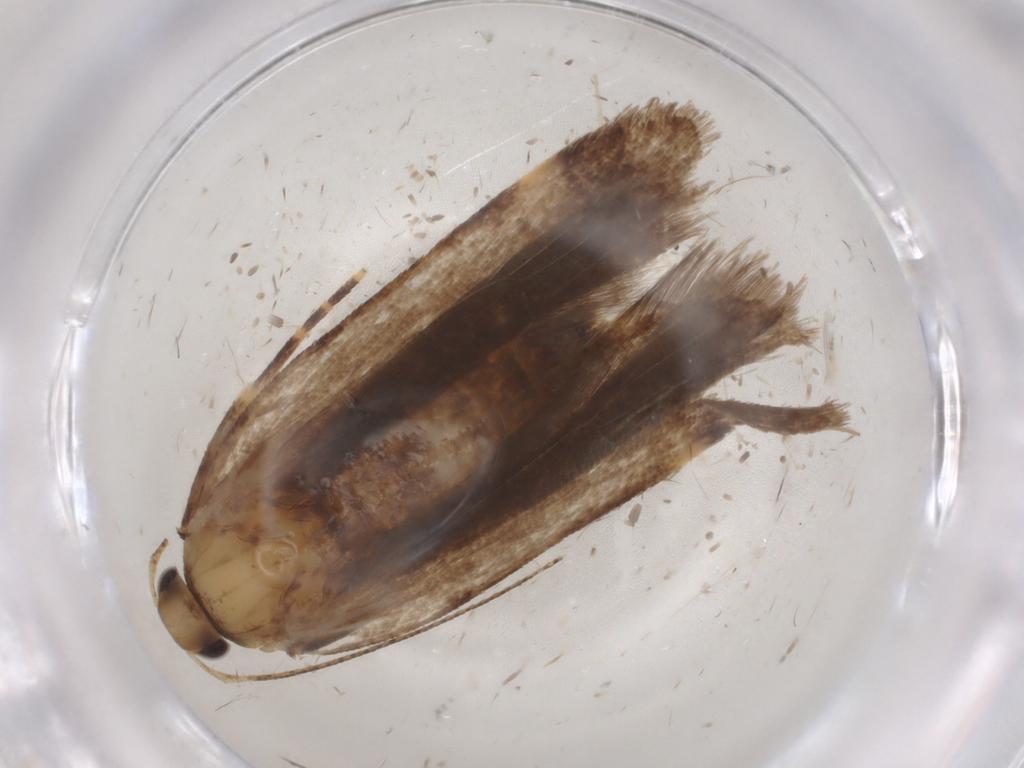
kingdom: Animalia
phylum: Arthropoda
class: Insecta
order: Lepidoptera
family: Gelechiidae
